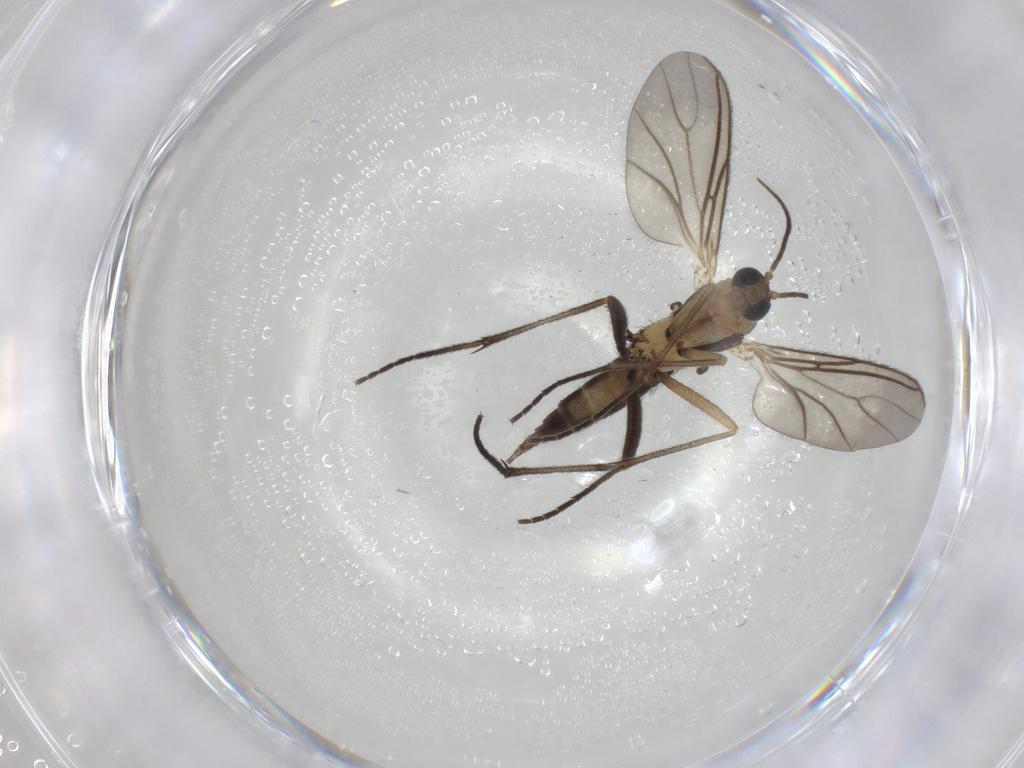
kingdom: Animalia
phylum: Arthropoda
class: Insecta
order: Diptera
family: Sciaridae
